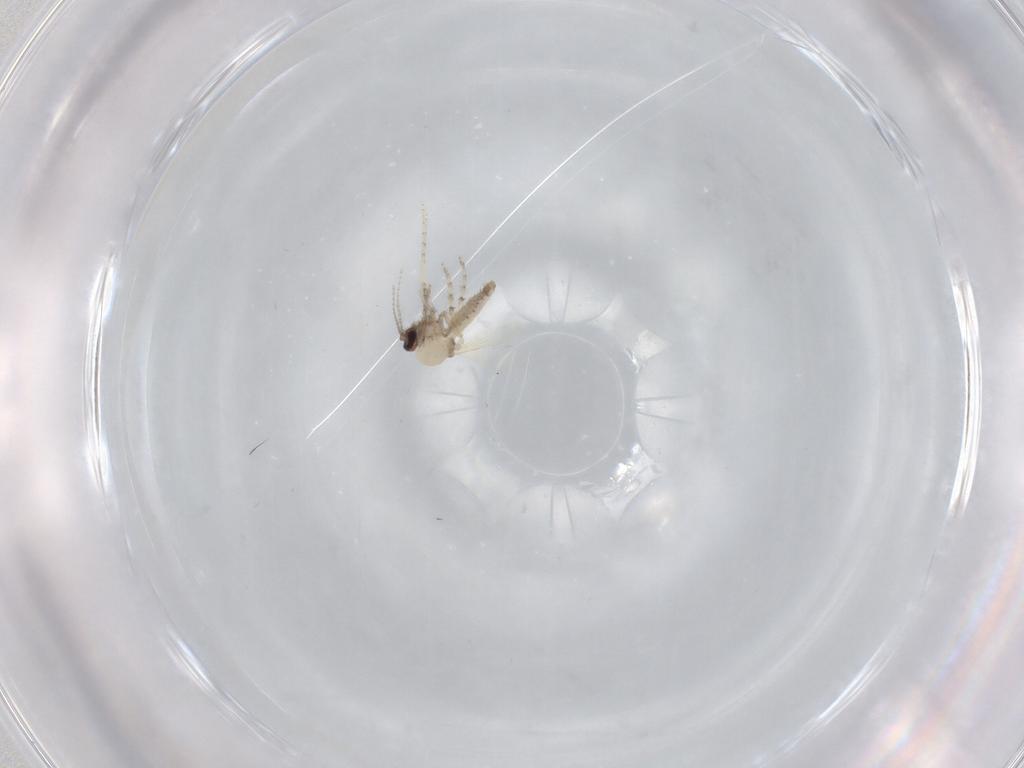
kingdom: Animalia
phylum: Arthropoda
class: Insecta
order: Diptera
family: Ceratopogonidae
